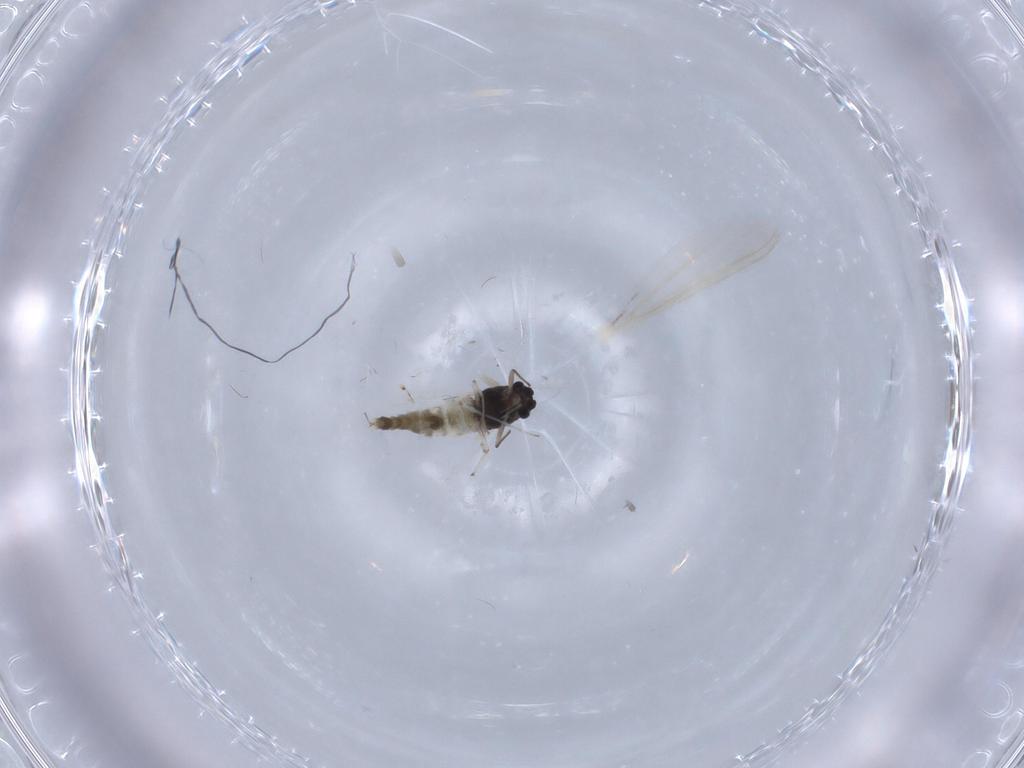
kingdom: Animalia
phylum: Arthropoda
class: Insecta
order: Diptera
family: Chironomidae
